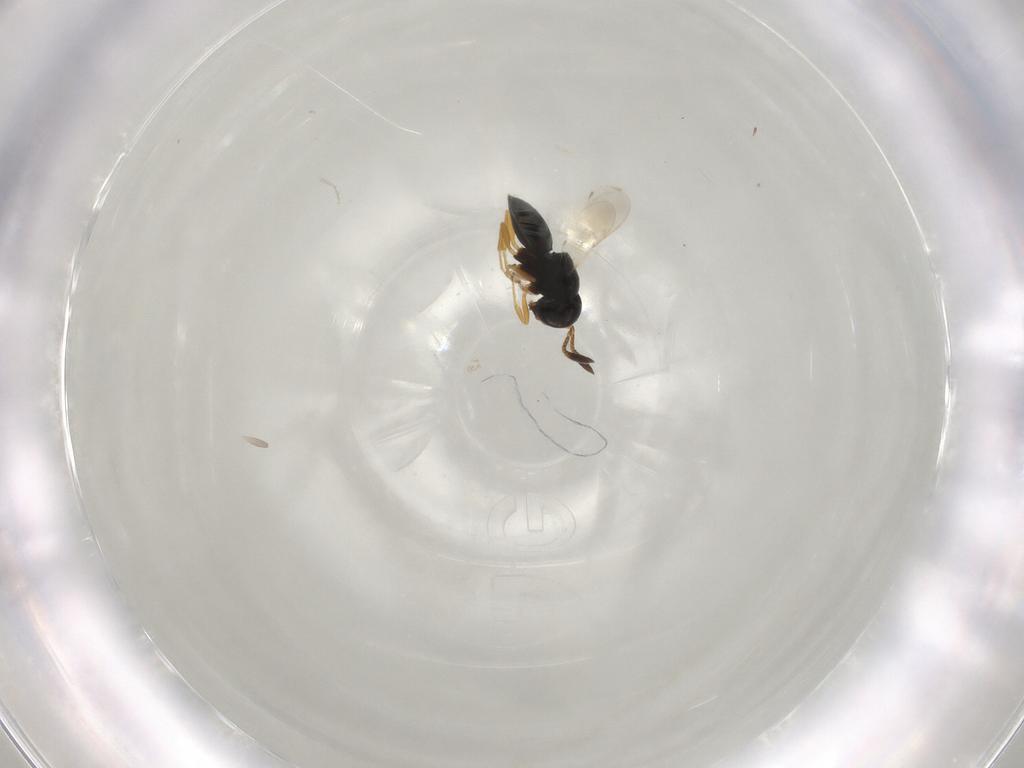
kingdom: Animalia
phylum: Arthropoda
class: Insecta
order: Hymenoptera
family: Scelionidae
